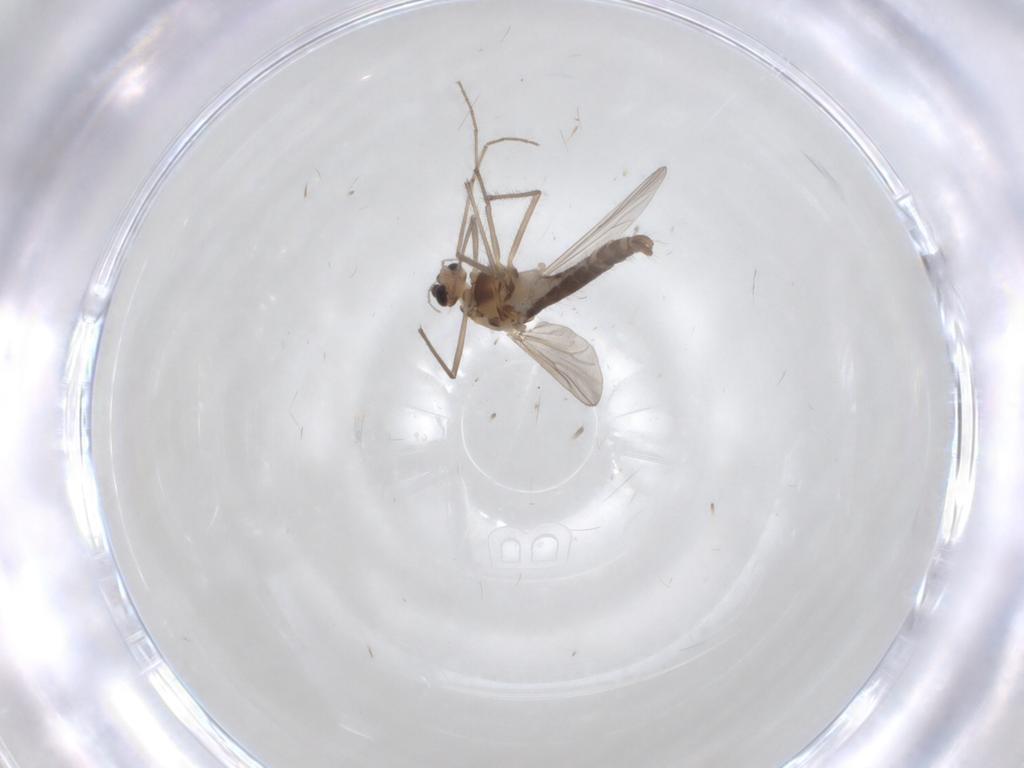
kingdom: Animalia
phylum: Arthropoda
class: Insecta
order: Diptera
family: Chironomidae
